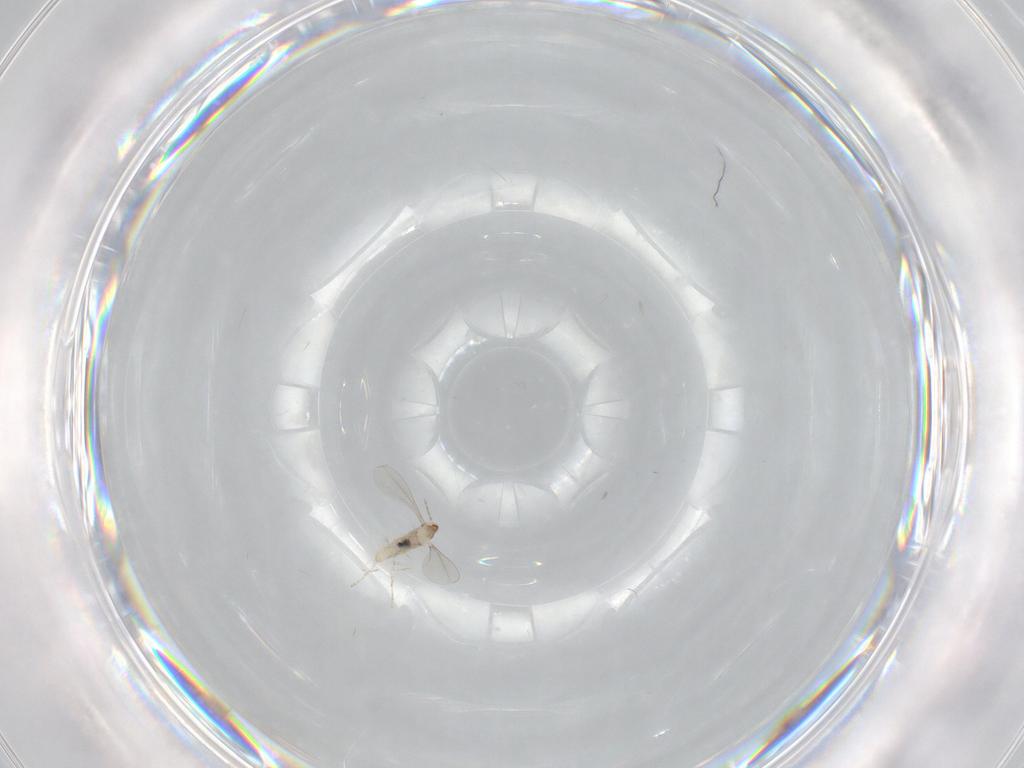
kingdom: Animalia
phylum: Arthropoda
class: Insecta
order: Diptera
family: Cecidomyiidae
